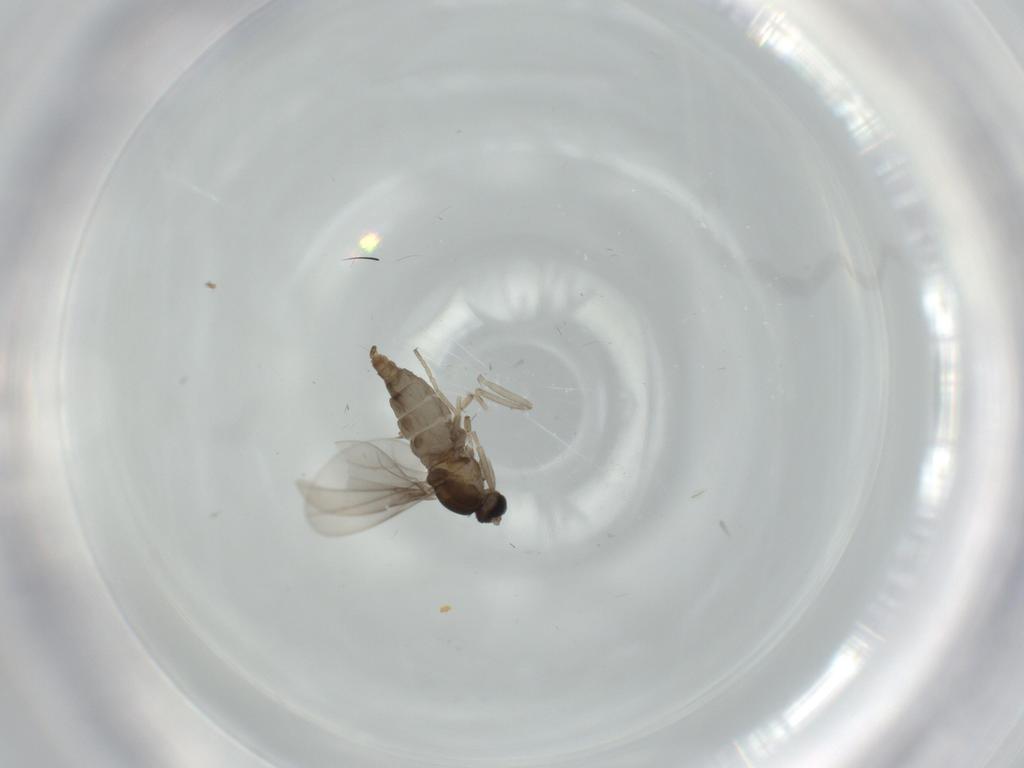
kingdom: Animalia
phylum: Arthropoda
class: Insecta
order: Diptera
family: Cecidomyiidae
